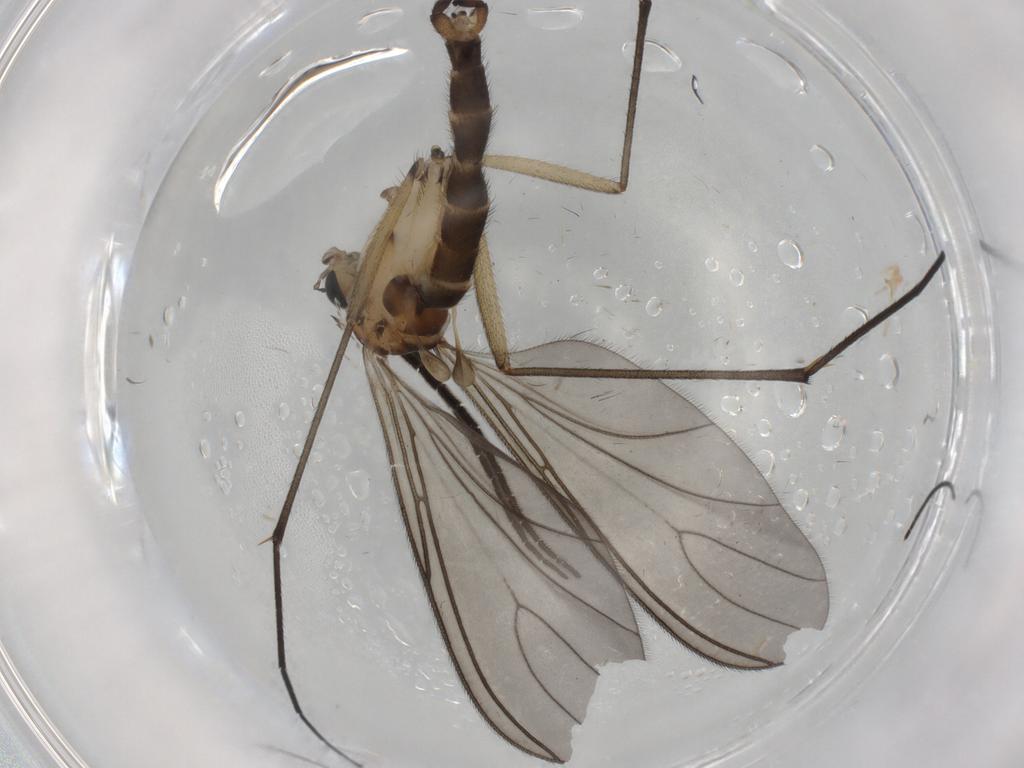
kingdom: Animalia
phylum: Arthropoda
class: Insecta
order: Diptera
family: Sciaridae
